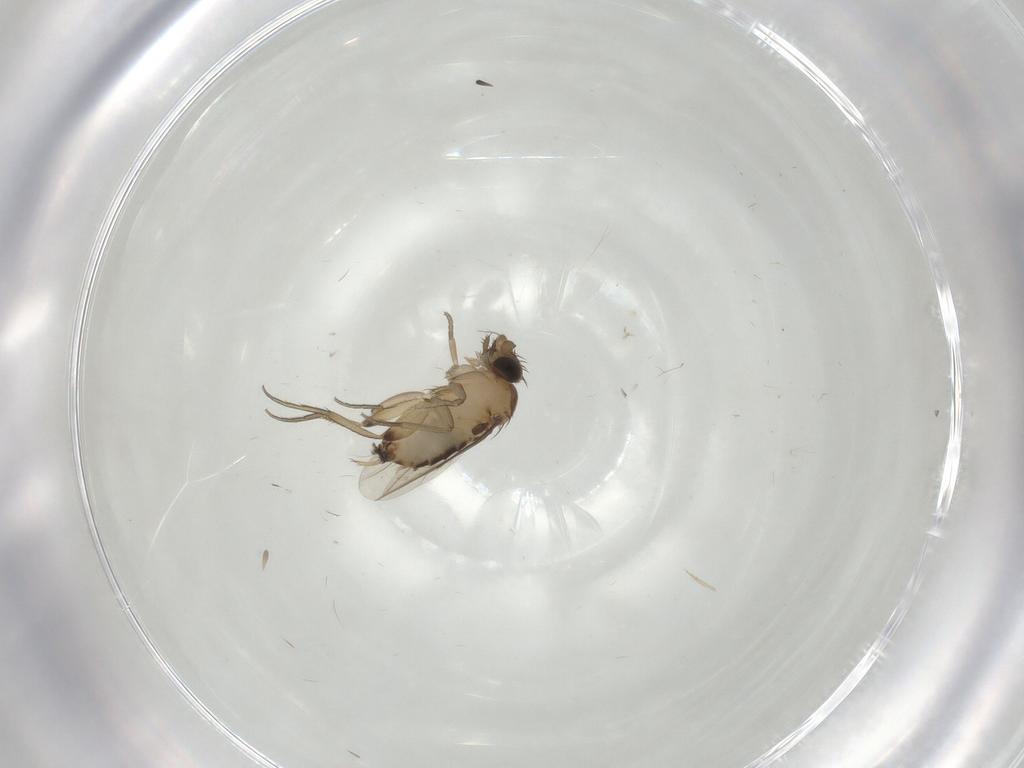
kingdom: Animalia
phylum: Arthropoda
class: Insecta
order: Diptera
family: Phoridae
